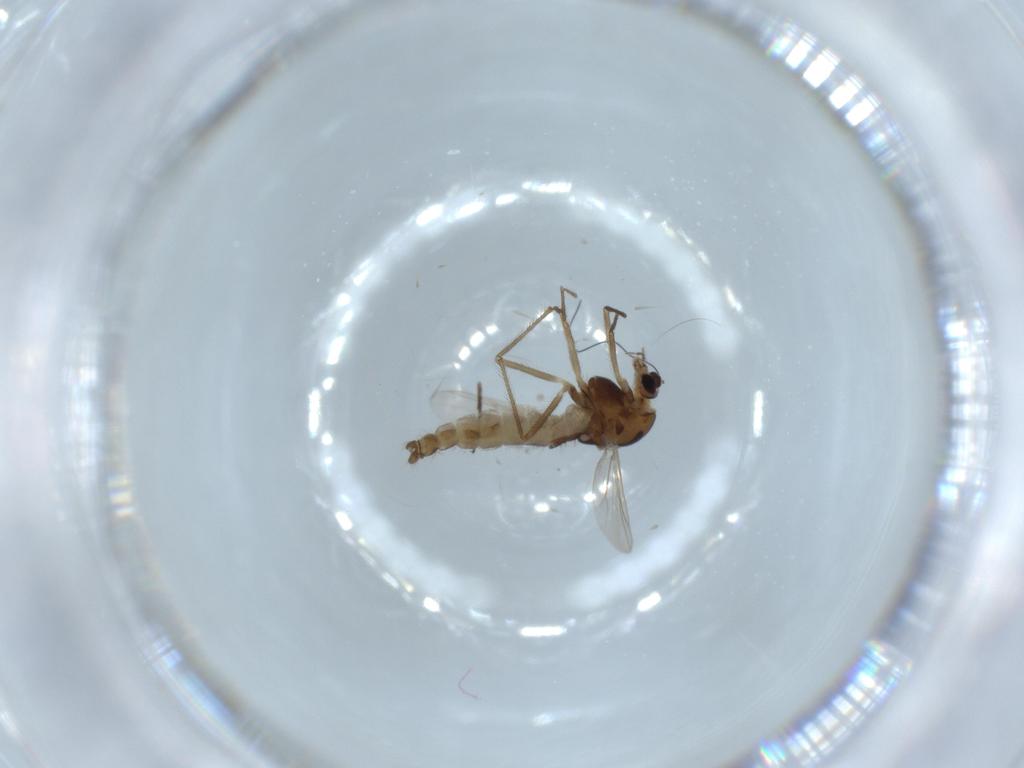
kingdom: Animalia
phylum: Arthropoda
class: Insecta
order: Diptera
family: Chironomidae
